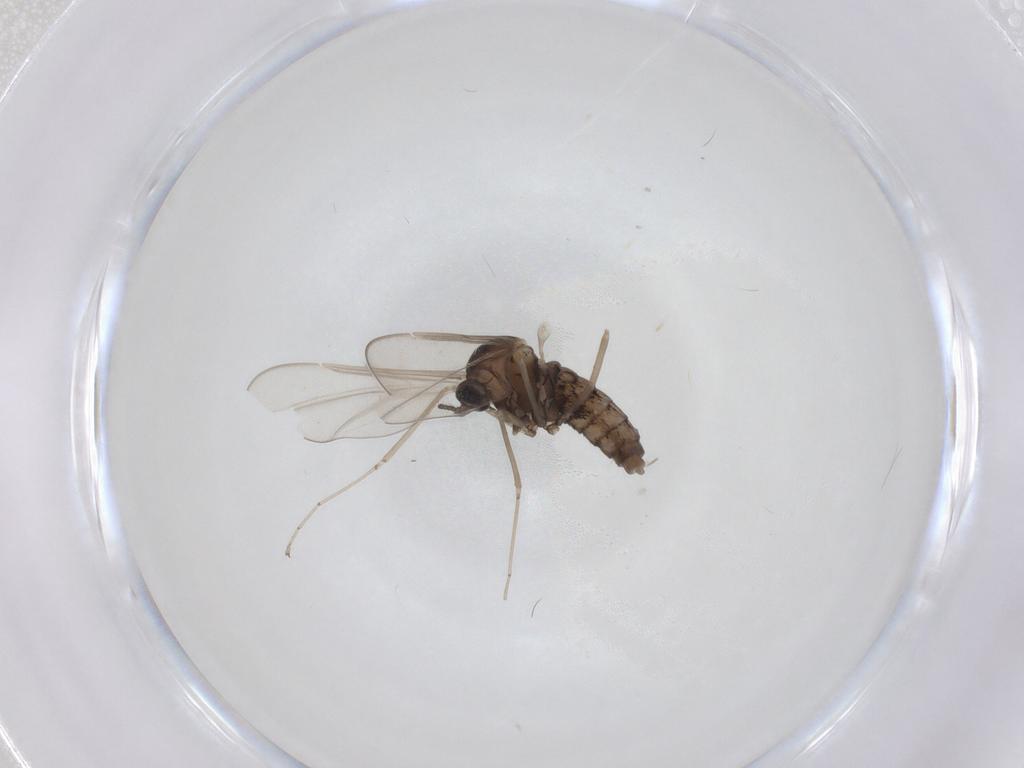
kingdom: Animalia
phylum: Arthropoda
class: Insecta
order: Diptera
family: Cecidomyiidae
